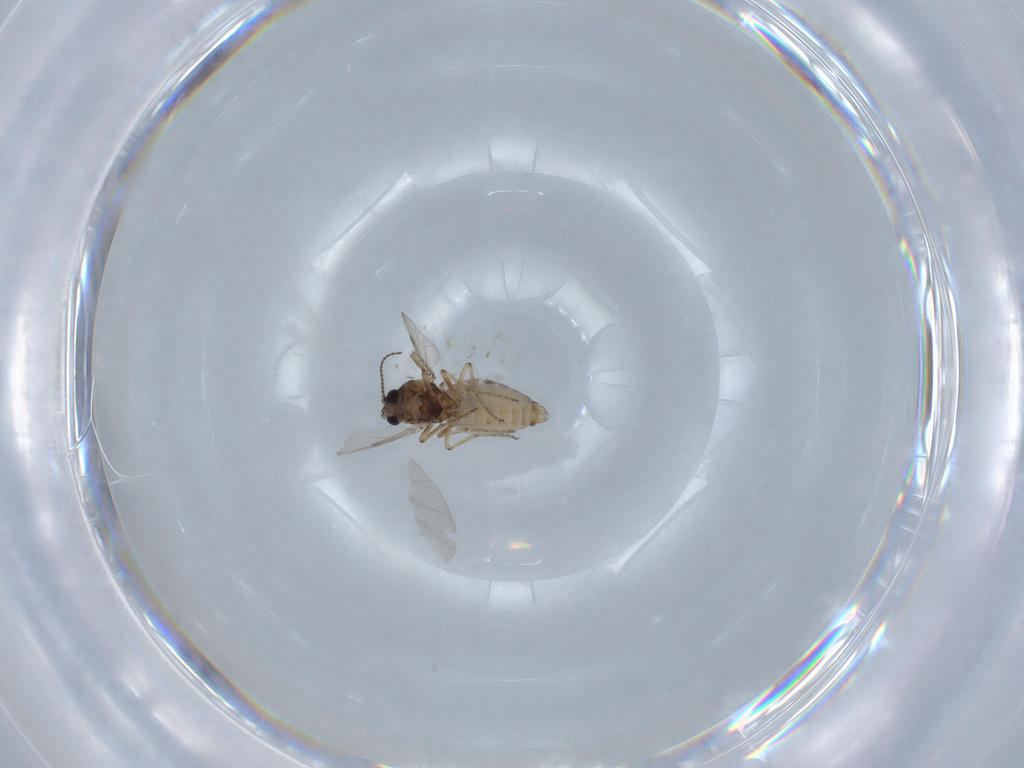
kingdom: Animalia
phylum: Arthropoda
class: Insecta
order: Diptera
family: Ceratopogonidae
